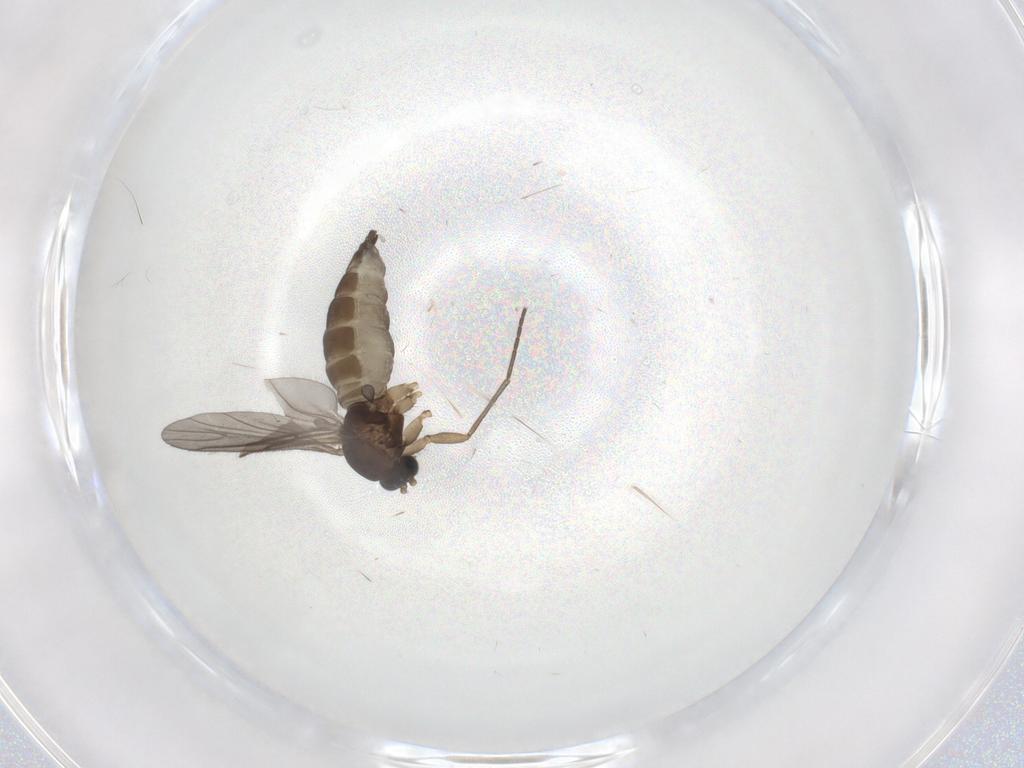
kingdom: Animalia
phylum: Arthropoda
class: Insecta
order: Diptera
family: Sciaridae
